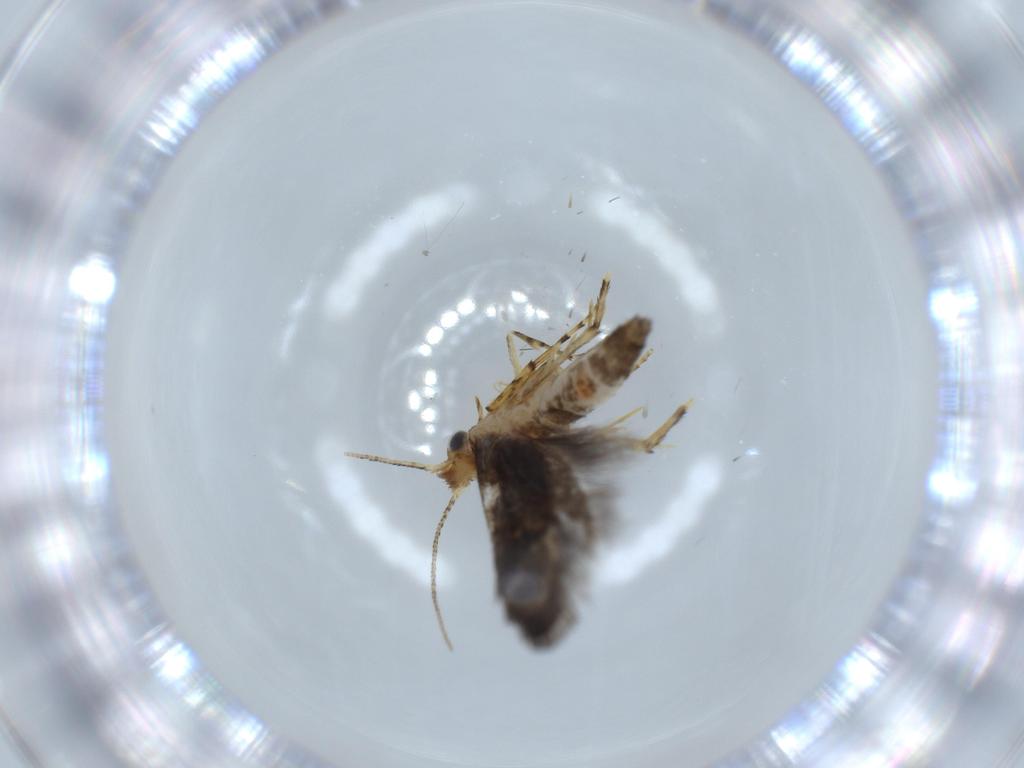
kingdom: Animalia
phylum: Arthropoda
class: Insecta
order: Lepidoptera
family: Argyresthiidae
